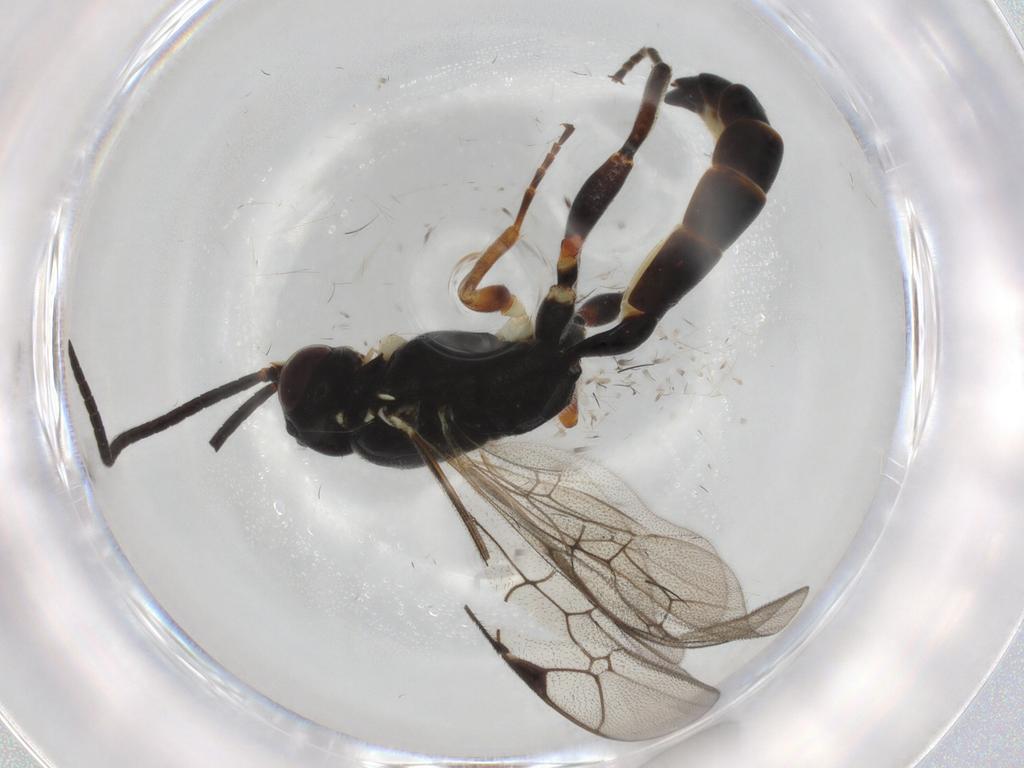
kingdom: Animalia
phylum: Arthropoda
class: Insecta
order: Hymenoptera
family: Ichneumonidae
